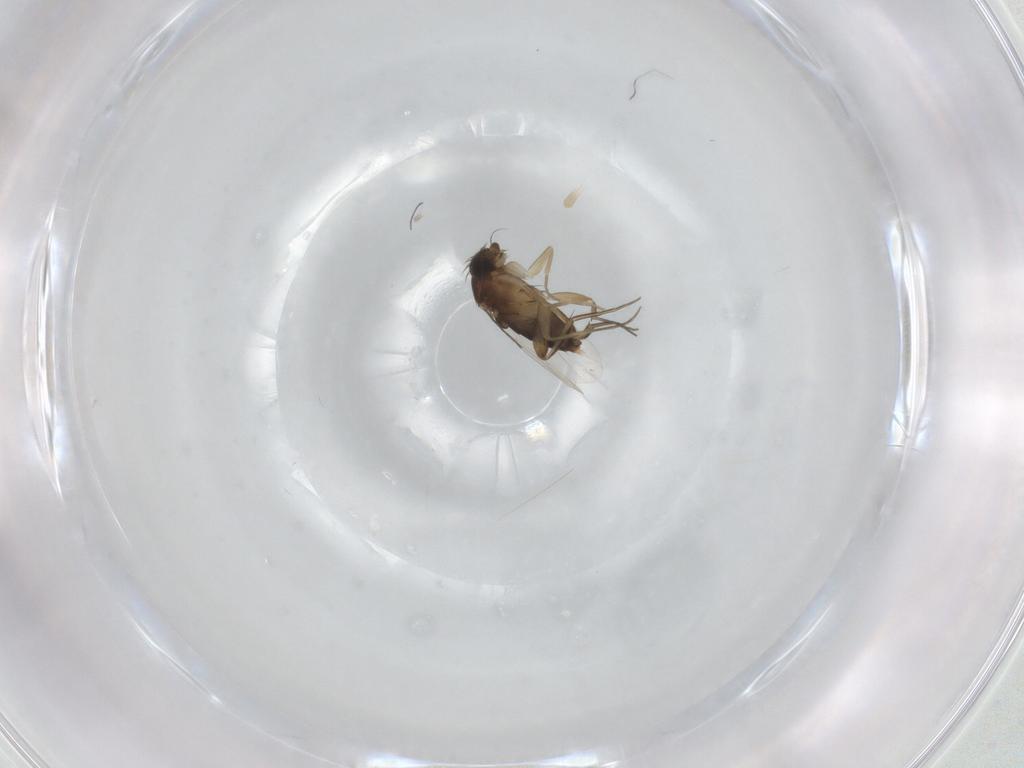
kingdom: Animalia
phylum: Arthropoda
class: Insecta
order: Diptera
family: Phoridae
